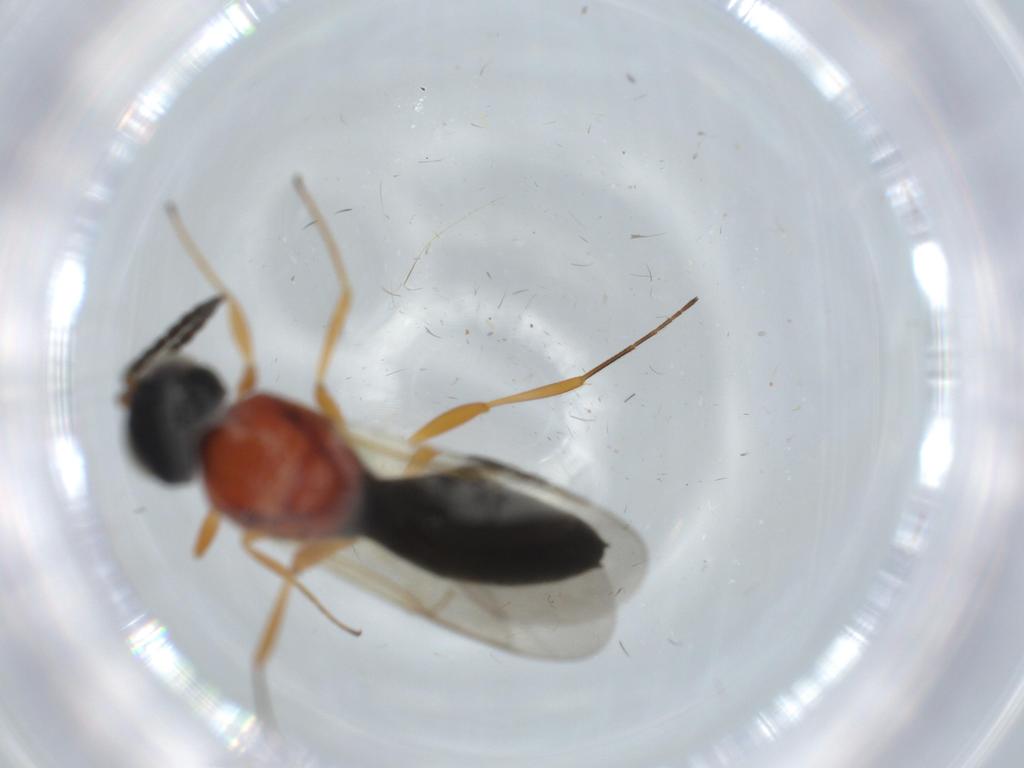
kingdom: Animalia
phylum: Arthropoda
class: Insecta
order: Hymenoptera
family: Scelionidae
